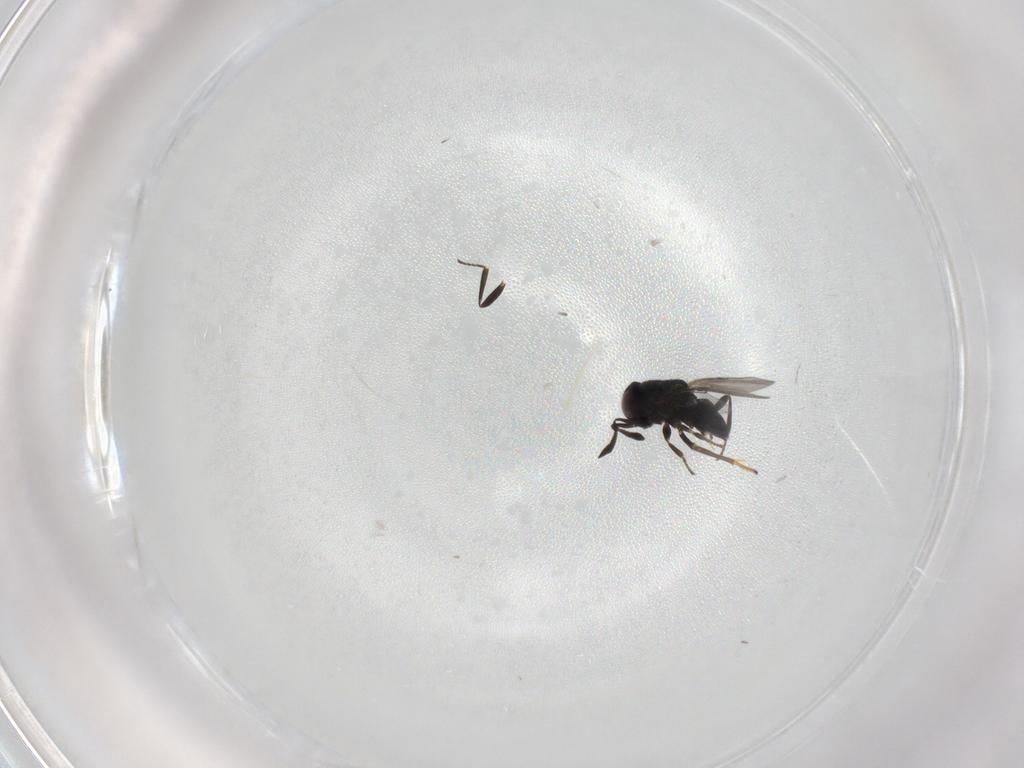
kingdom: Animalia
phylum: Arthropoda
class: Insecta
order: Hymenoptera
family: Encyrtidae
